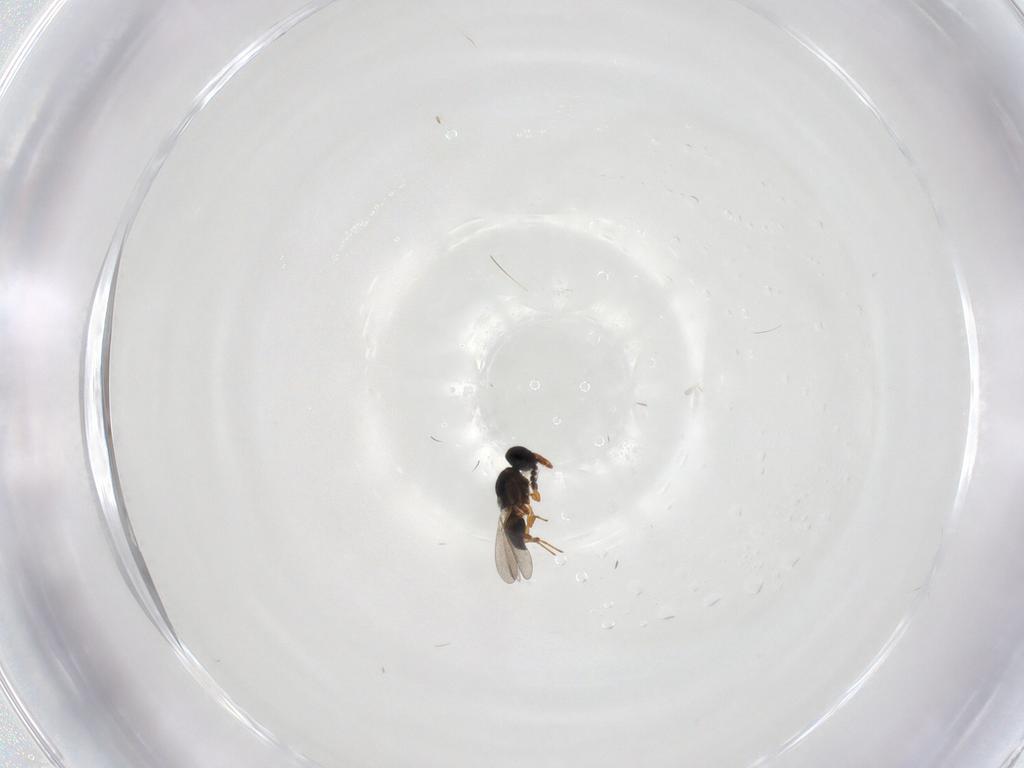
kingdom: Animalia
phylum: Arthropoda
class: Insecta
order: Hymenoptera
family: Platygastridae
